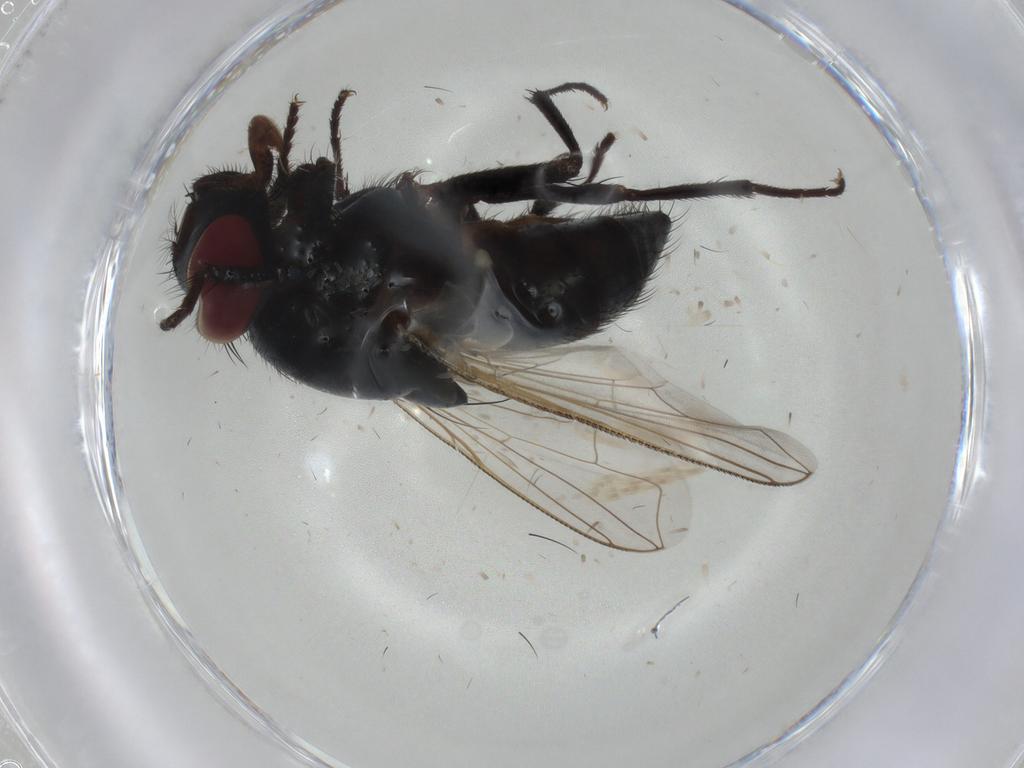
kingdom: Animalia
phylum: Arthropoda
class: Insecta
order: Diptera
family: Muscidae
